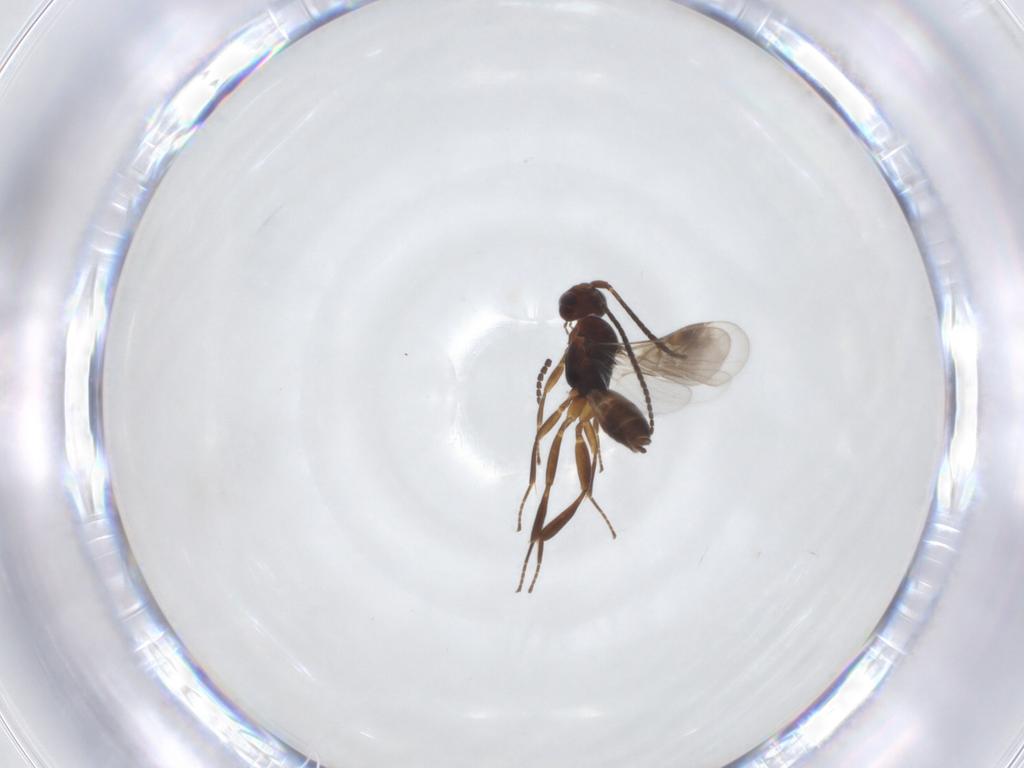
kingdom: Animalia
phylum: Arthropoda
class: Insecta
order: Hymenoptera
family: Braconidae
